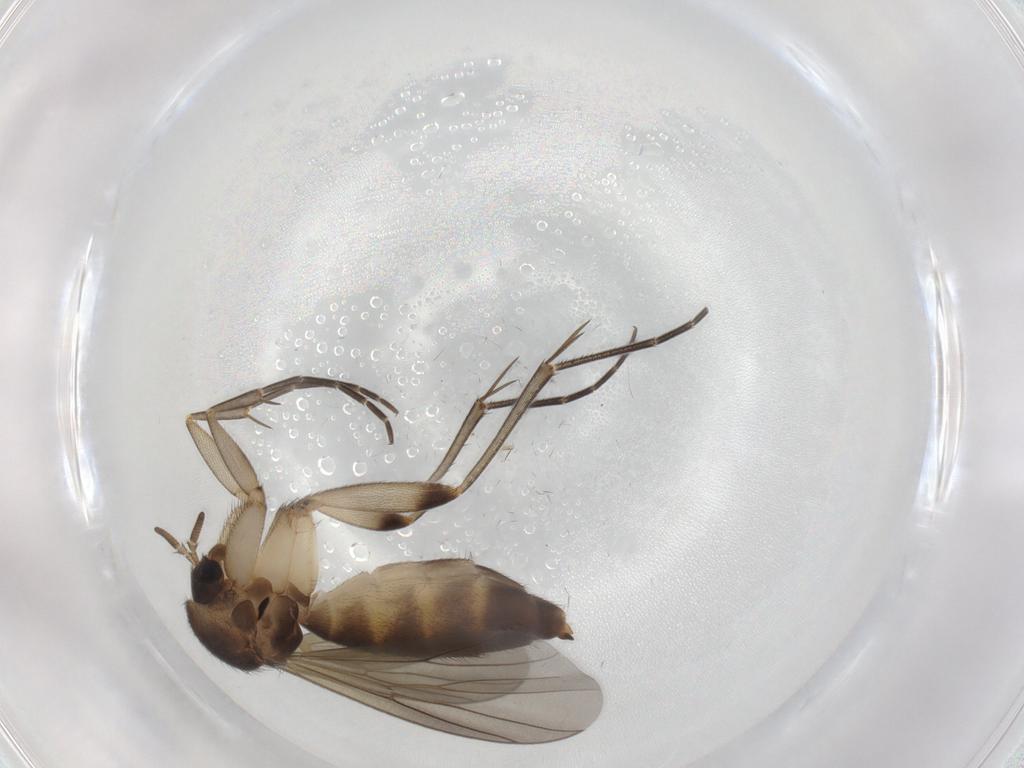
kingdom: Animalia
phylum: Arthropoda
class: Insecta
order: Diptera
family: Mycetophilidae
